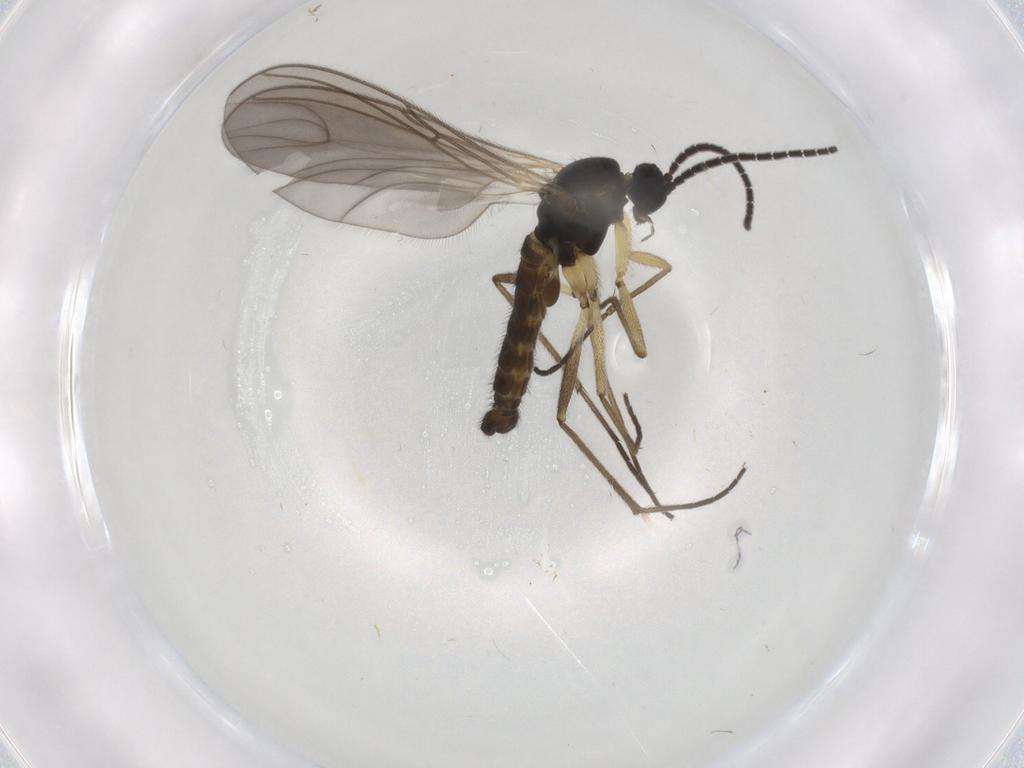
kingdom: Animalia
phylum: Arthropoda
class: Insecta
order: Diptera
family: Sciaridae
